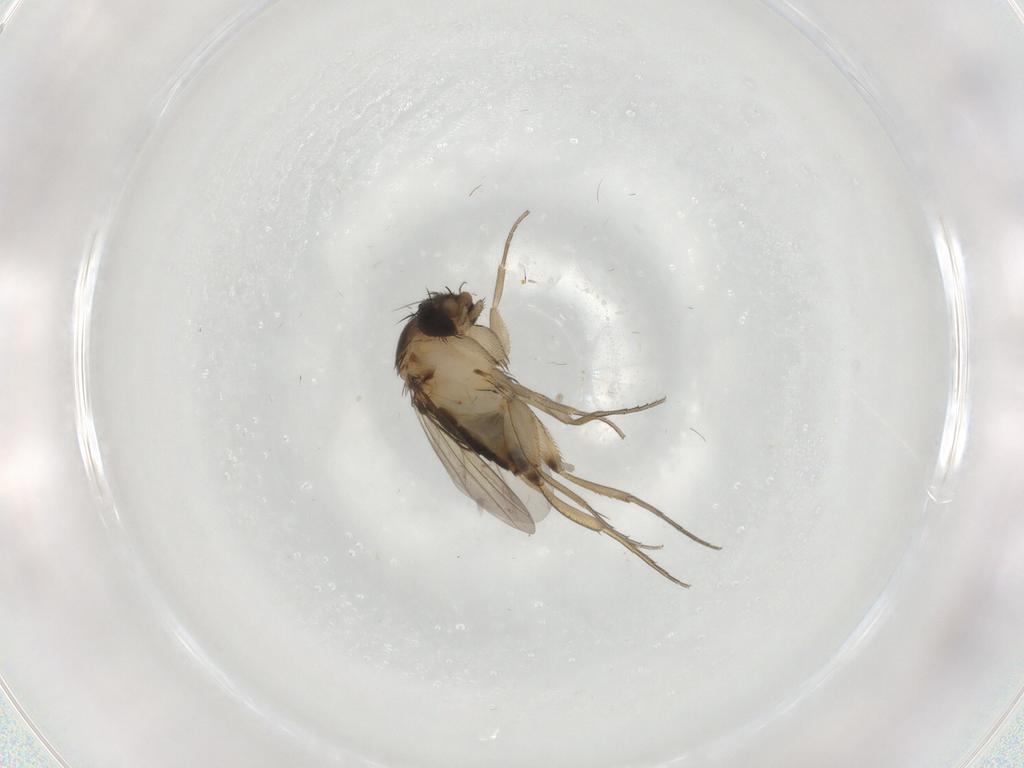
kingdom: Animalia
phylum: Arthropoda
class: Insecta
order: Diptera
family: Phoridae
